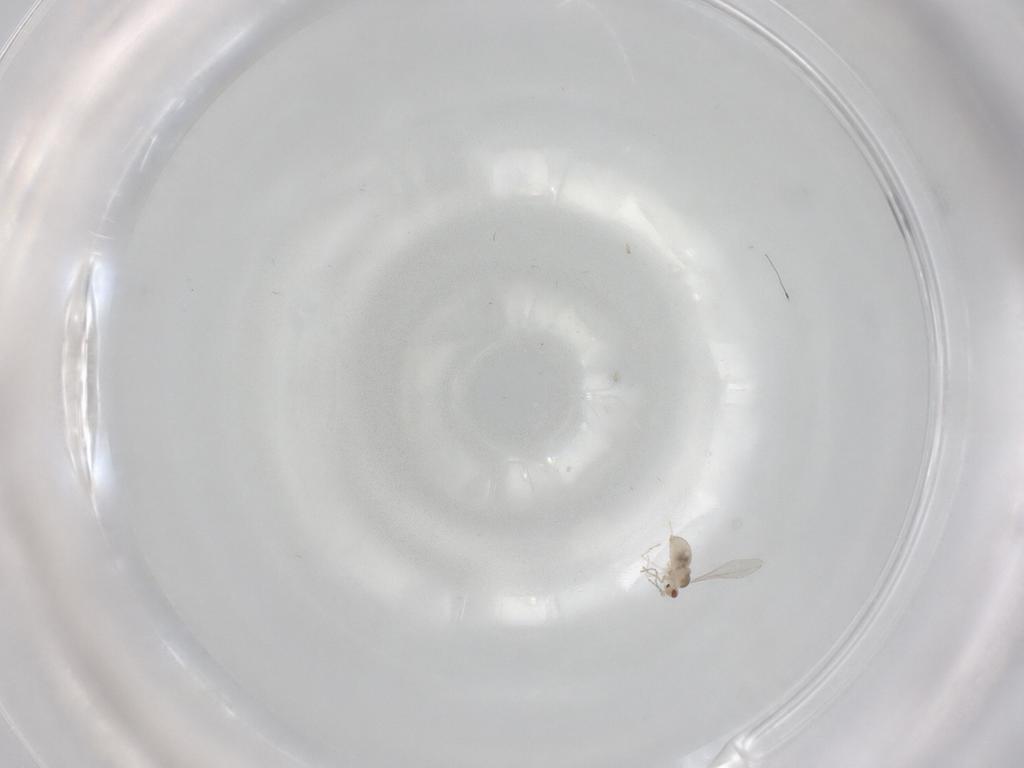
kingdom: Animalia
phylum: Arthropoda
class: Insecta
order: Diptera
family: Cecidomyiidae
